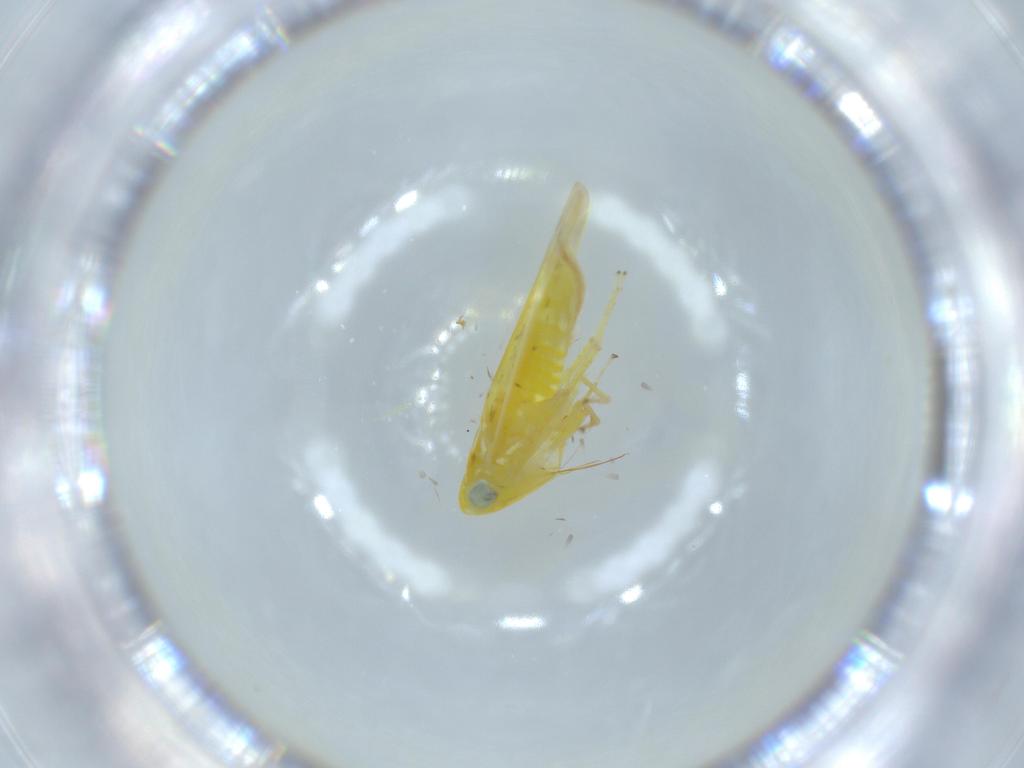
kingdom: Animalia
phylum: Arthropoda
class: Insecta
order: Hemiptera
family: Cicadellidae
